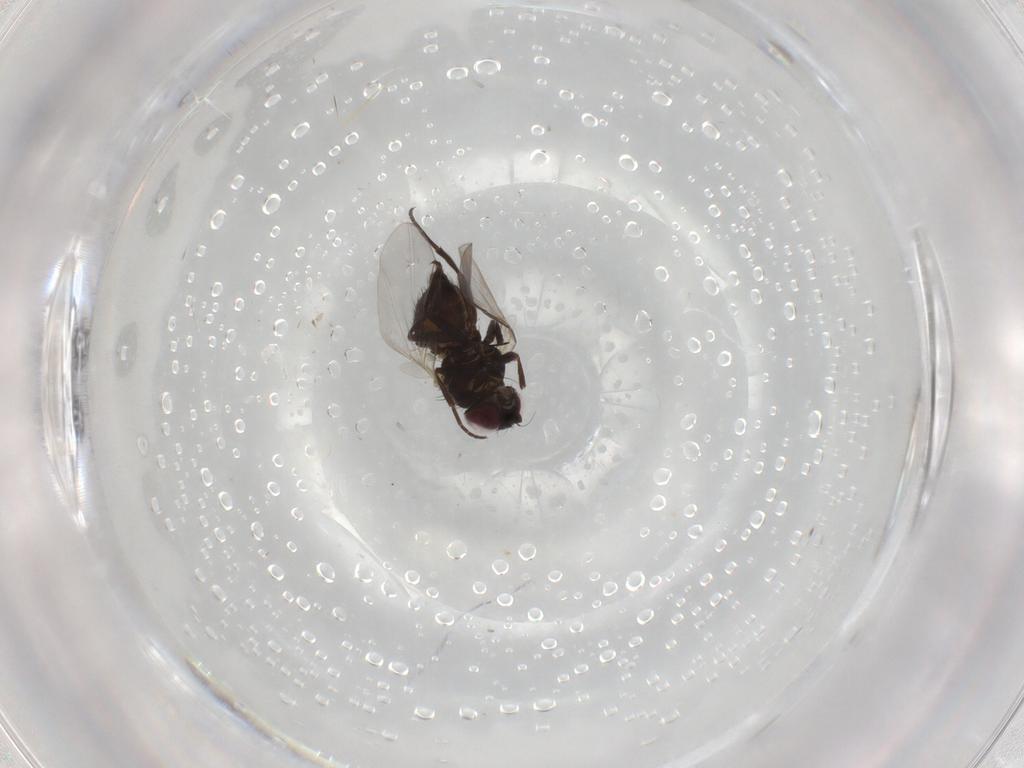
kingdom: Animalia
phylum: Arthropoda
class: Insecta
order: Diptera
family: Agromyzidae
